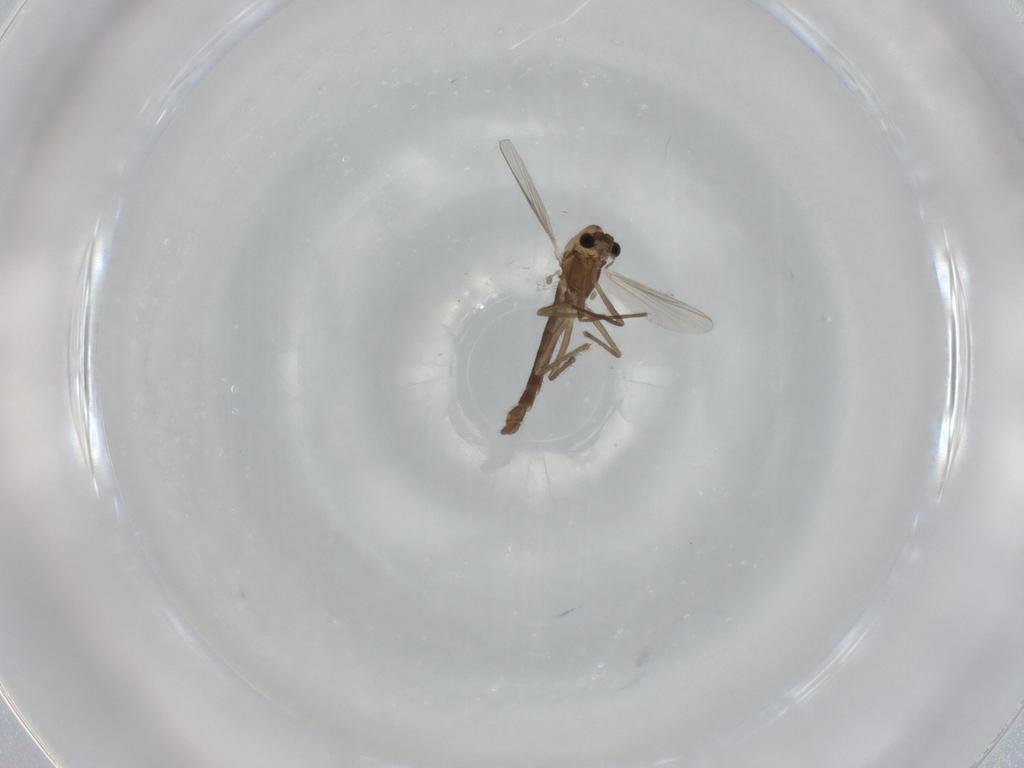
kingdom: Animalia
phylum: Arthropoda
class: Insecta
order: Diptera
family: Chironomidae
